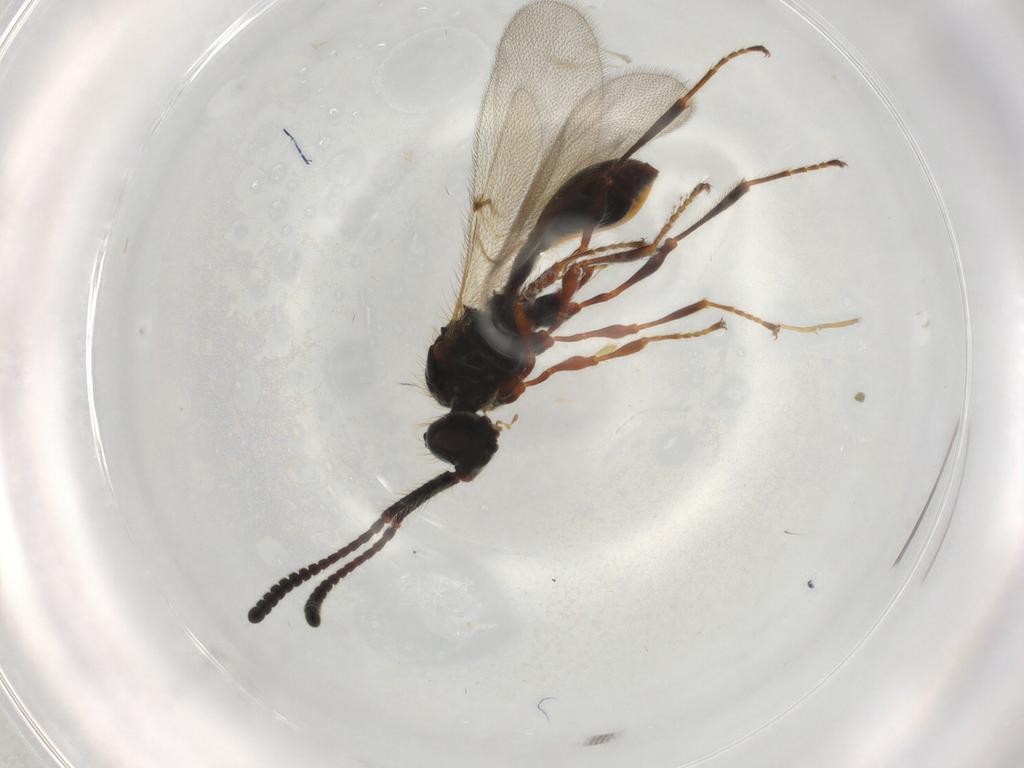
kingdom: Animalia
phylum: Arthropoda
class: Insecta
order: Hymenoptera
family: Diapriidae
